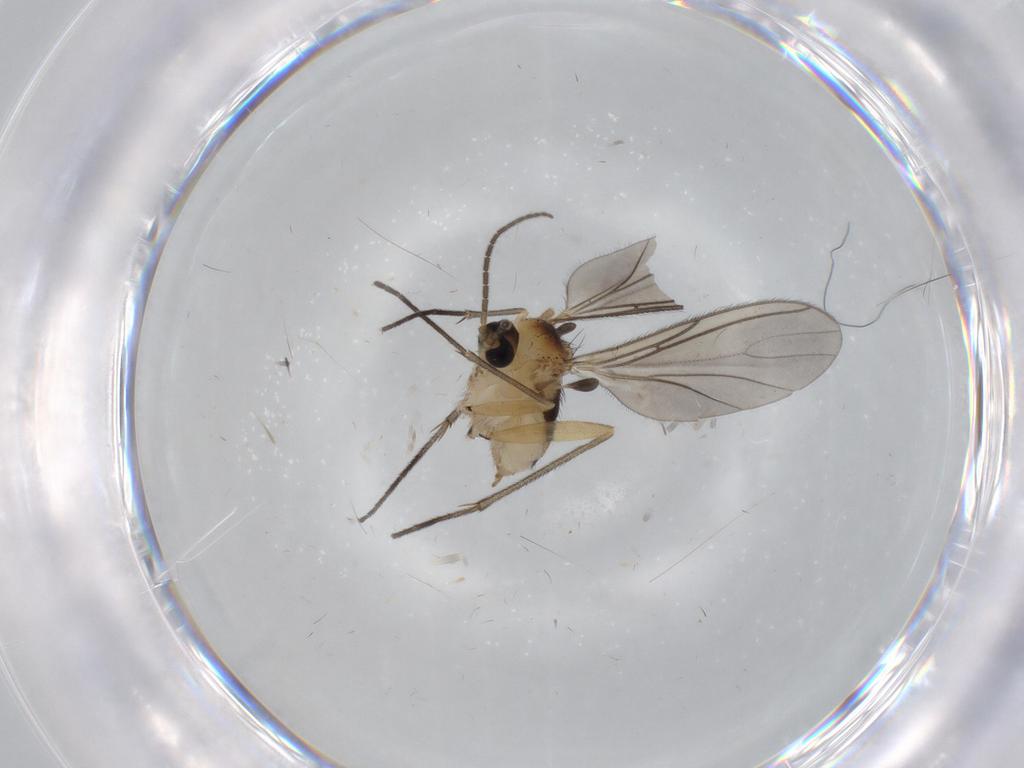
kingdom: Animalia
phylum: Arthropoda
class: Insecta
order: Diptera
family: Sciaridae
